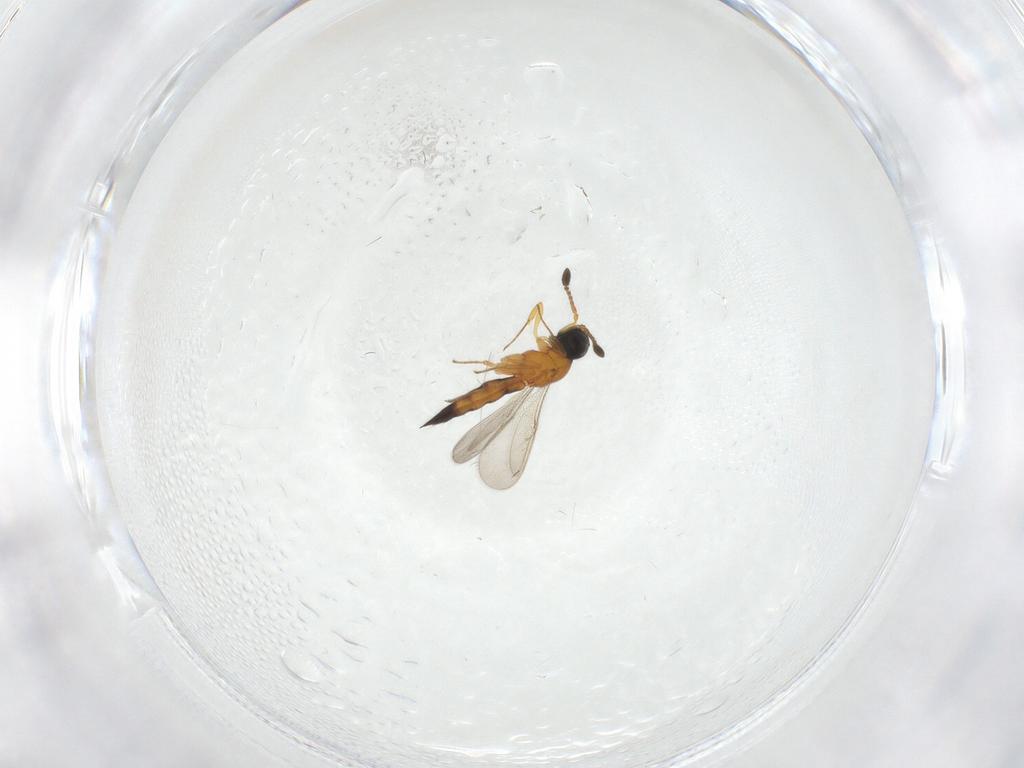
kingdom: Animalia
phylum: Arthropoda
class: Insecta
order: Hymenoptera
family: Scelionidae
